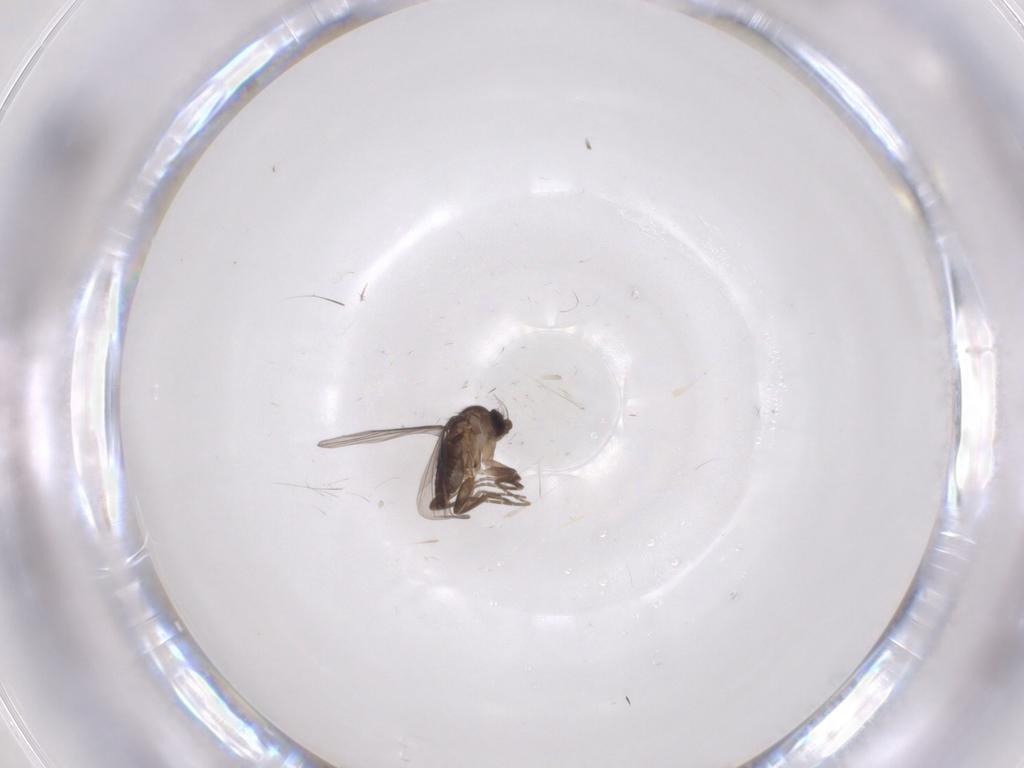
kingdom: Animalia
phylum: Arthropoda
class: Insecta
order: Diptera
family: Phoridae
